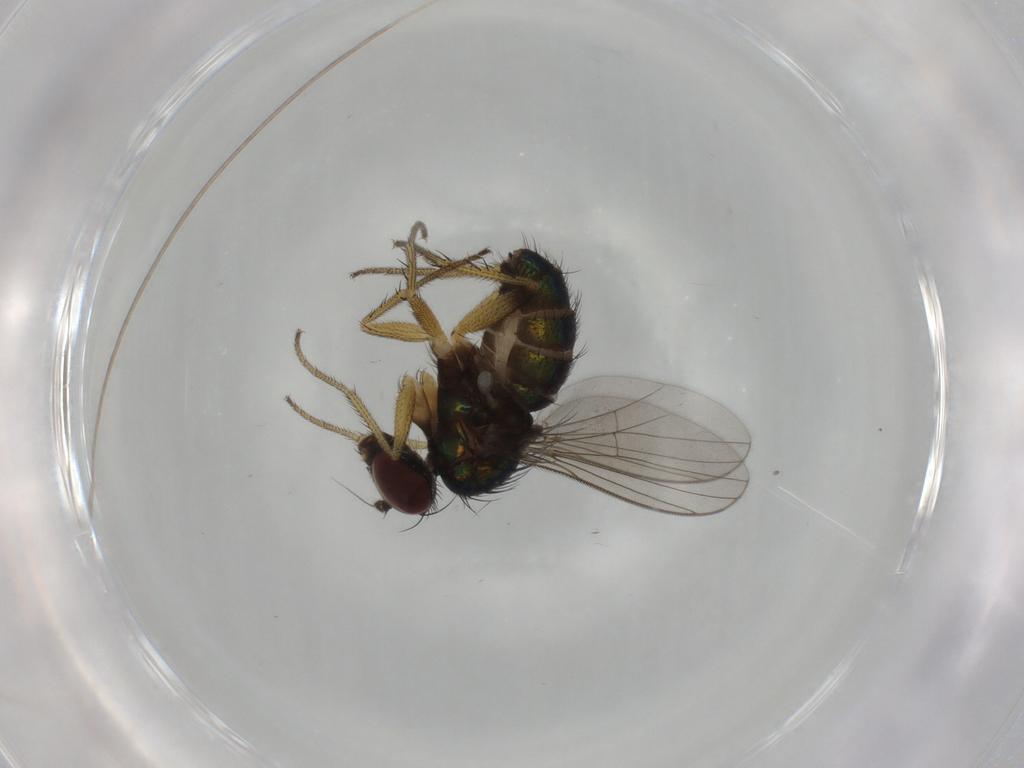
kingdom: Animalia
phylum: Arthropoda
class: Insecta
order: Diptera
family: Dolichopodidae
